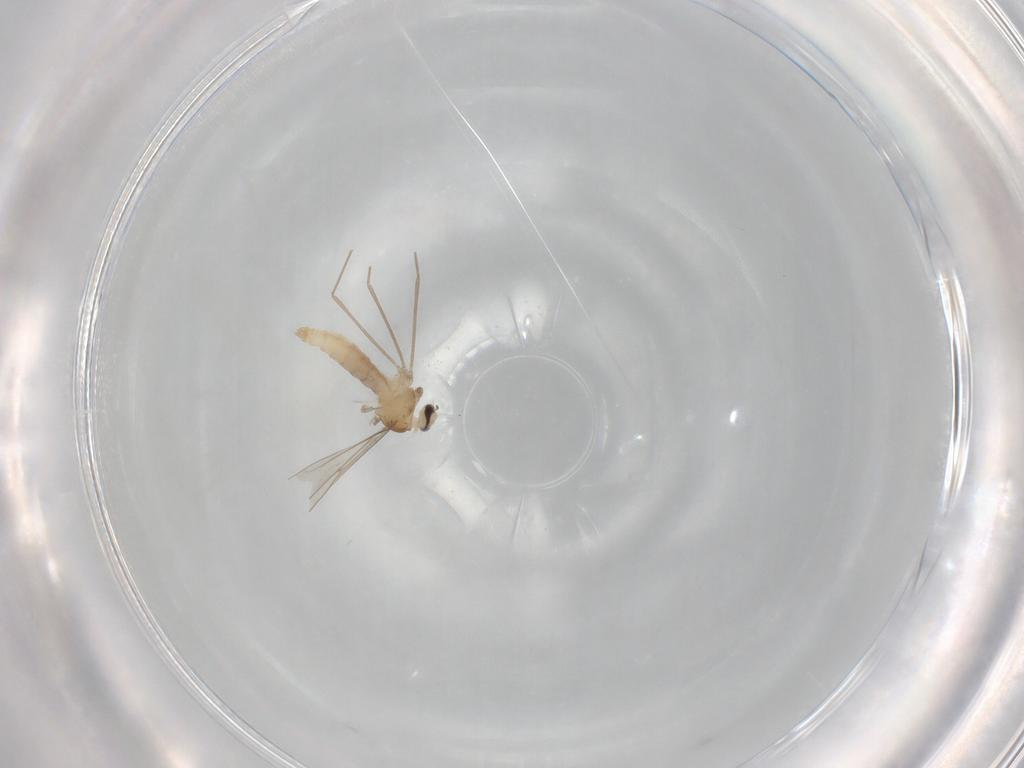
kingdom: Animalia
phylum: Arthropoda
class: Insecta
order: Diptera
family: Cecidomyiidae
